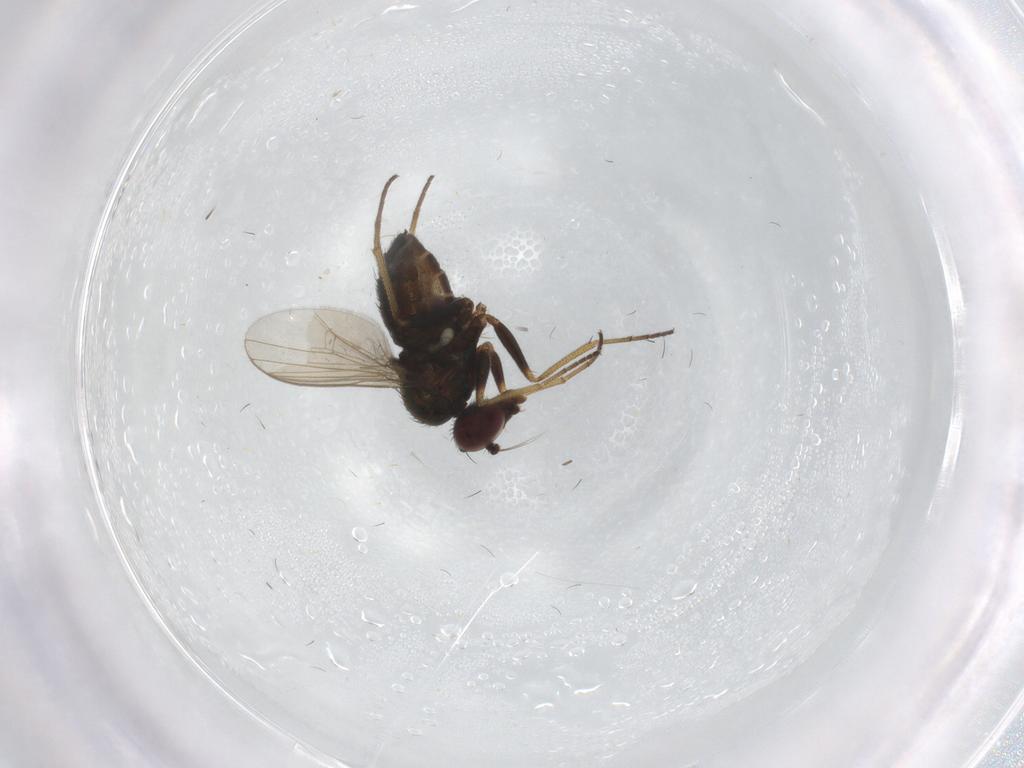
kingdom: Animalia
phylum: Arthropoda
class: Insecta
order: Diptera
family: Dolichopodidae
